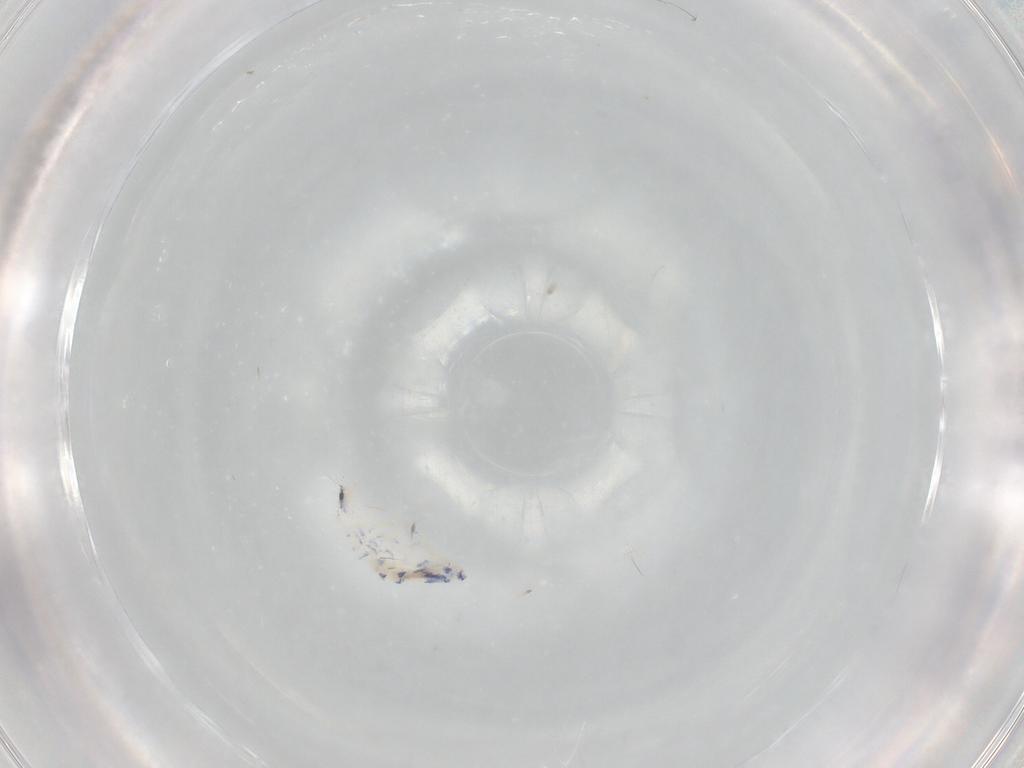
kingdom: Animalia
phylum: Arthropoda
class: Collembola
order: Entomobryomorpha
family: Entomobryidae
